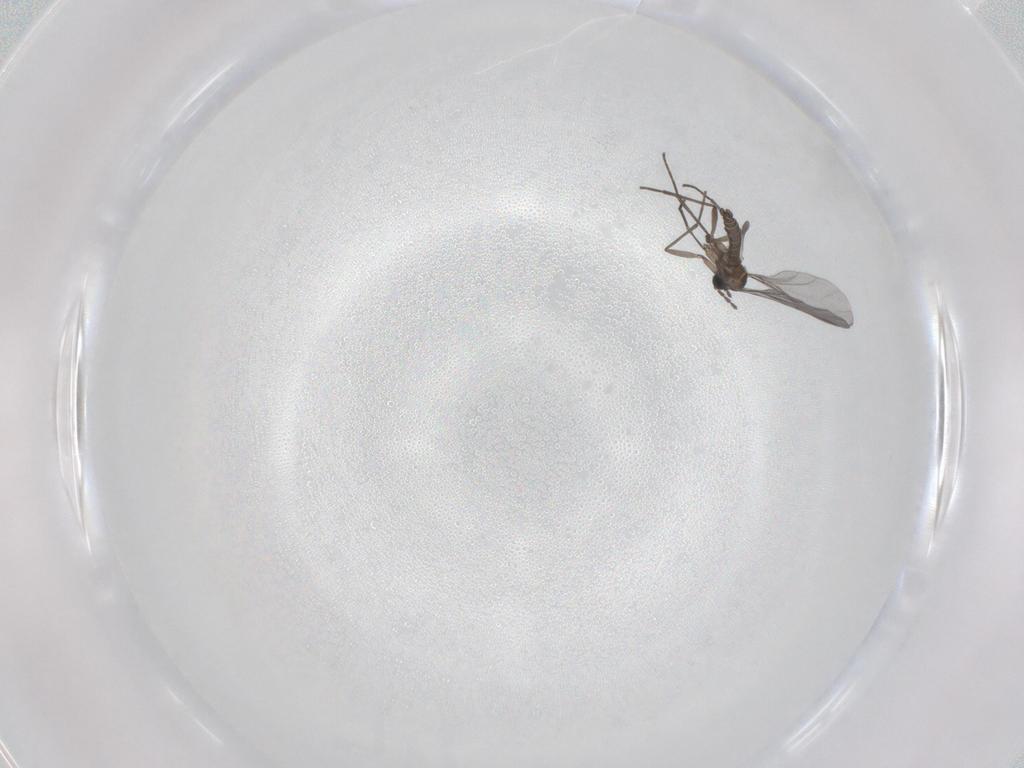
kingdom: Animalia
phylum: Arthropoda
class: Insecta
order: Diptera
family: Sciaridae
